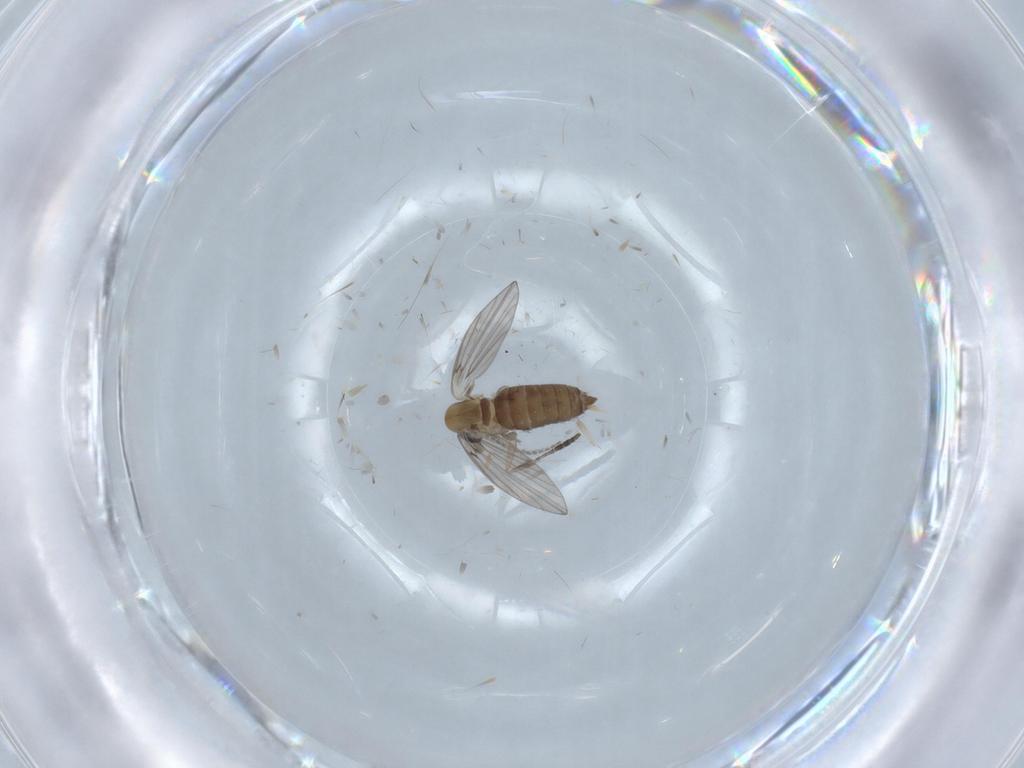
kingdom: Animalia
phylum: Arthropoda
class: Insecta
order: Diptera
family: Psychodidae
